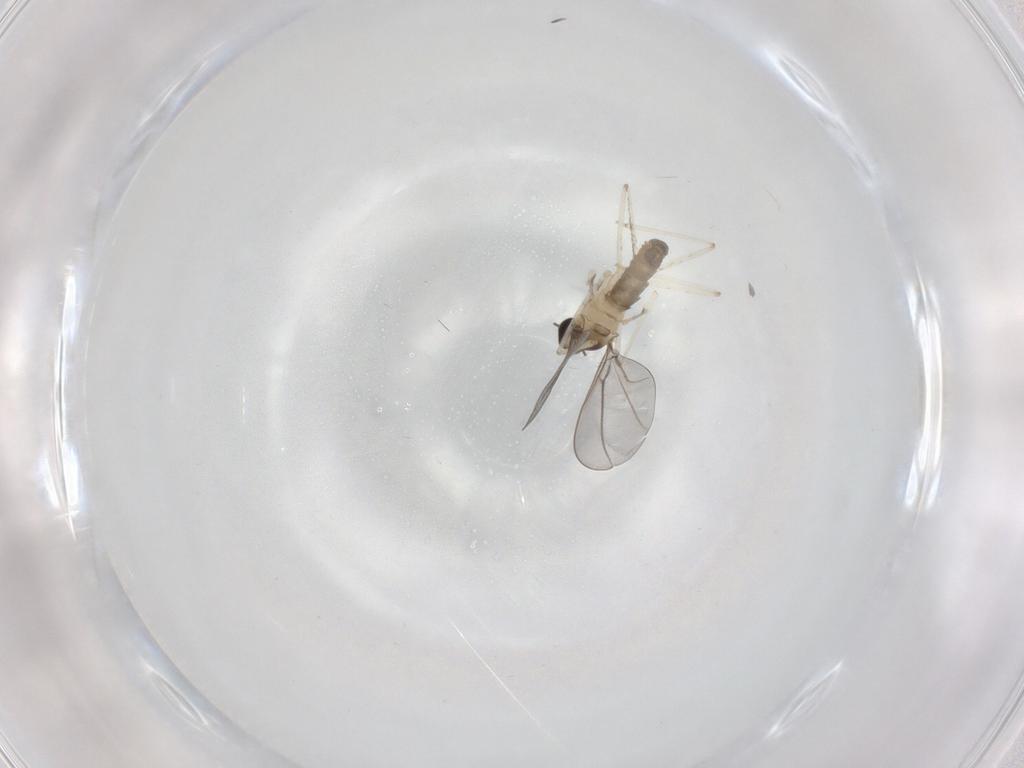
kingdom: Animalia
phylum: Arthropoda
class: Insecta
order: Diptera
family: Cecidomyiidae
